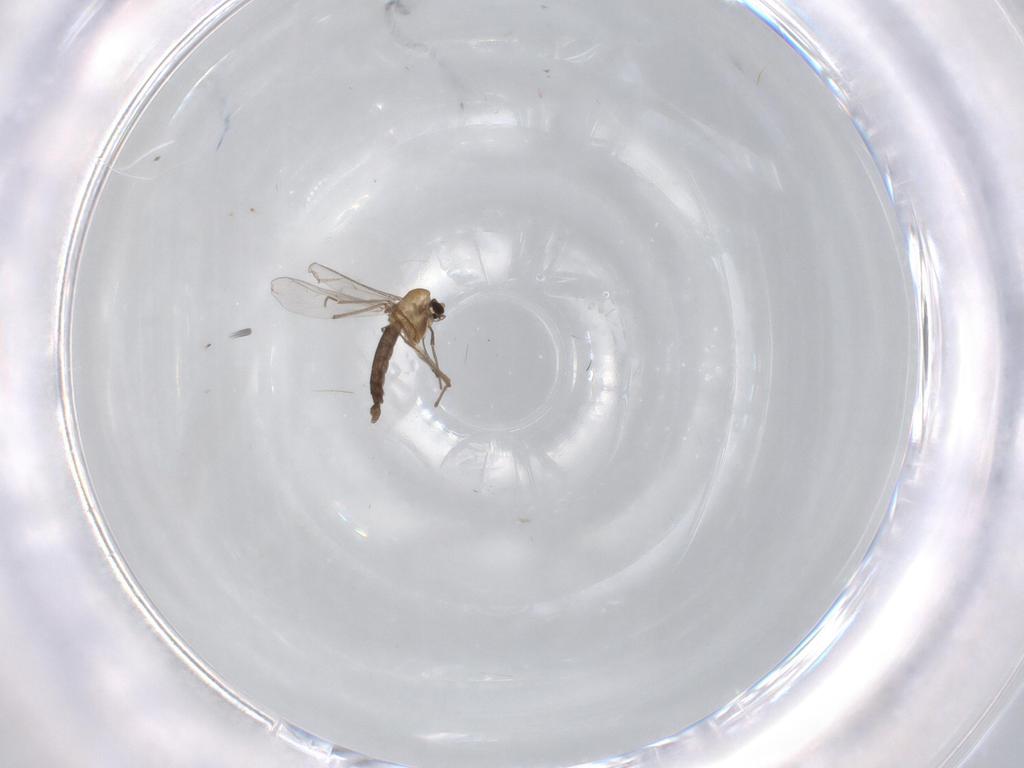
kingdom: Animalia
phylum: Arthropoda
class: Insecta
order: Diptera
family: Chironomidae
